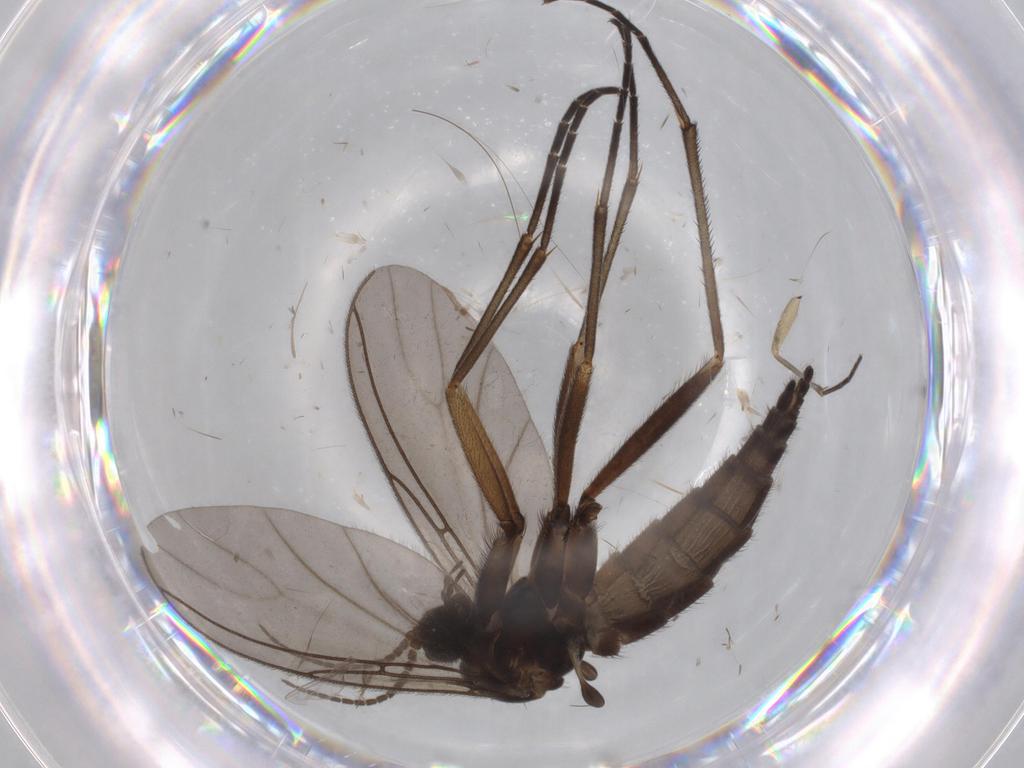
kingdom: Animalia
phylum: Arthropoda
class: Insecta
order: Diptera
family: Sciaridae
